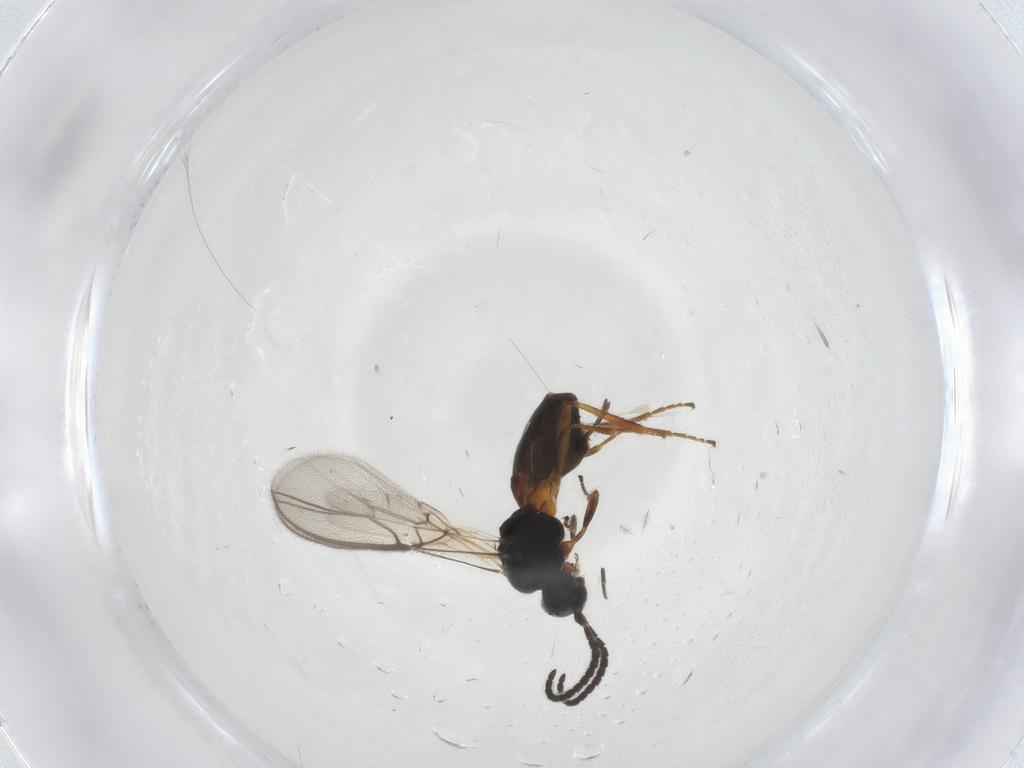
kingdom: Animalia
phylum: Arthropoda
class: Insecta
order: Hymenoptera
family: Braconidae
